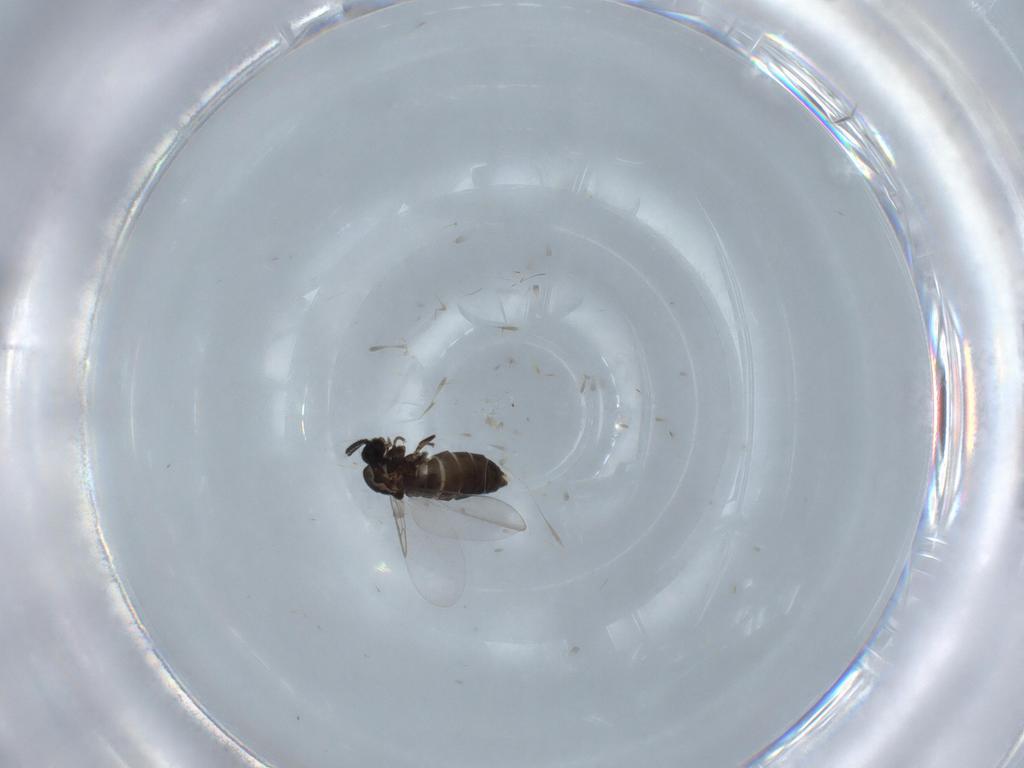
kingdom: Animalia
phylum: Arthropoda
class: Insecta
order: Diptera
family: Scatopsidae
